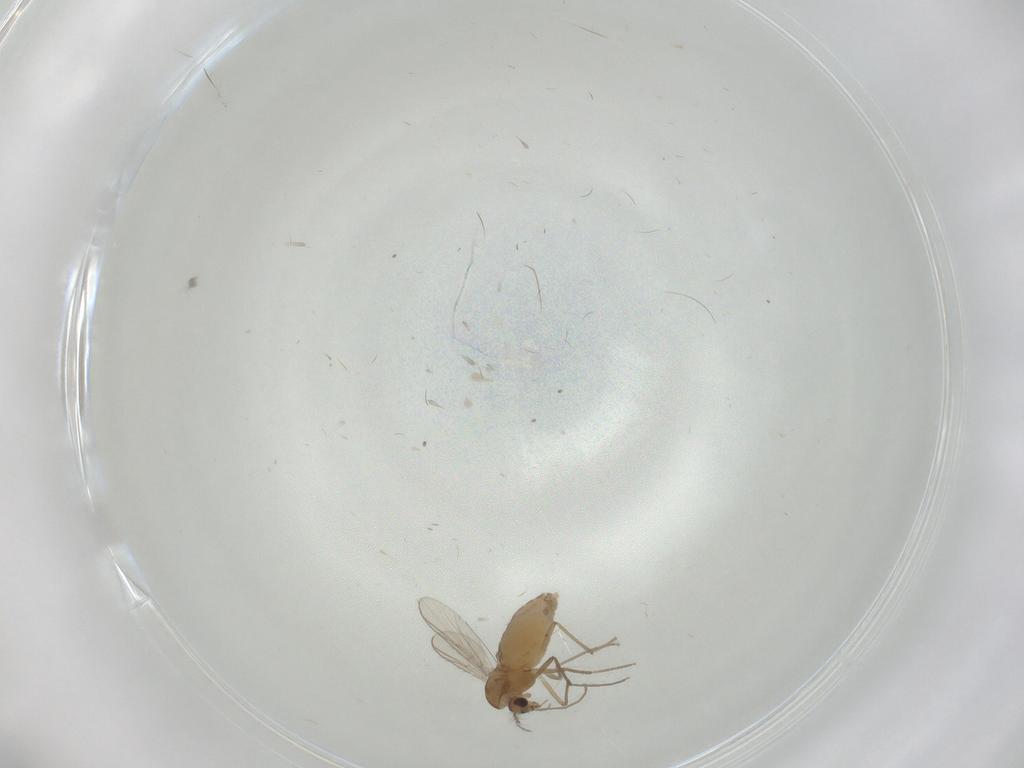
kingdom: Animalia
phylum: Arthropoda
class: Insecta
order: Diptera
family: Chironomidae
